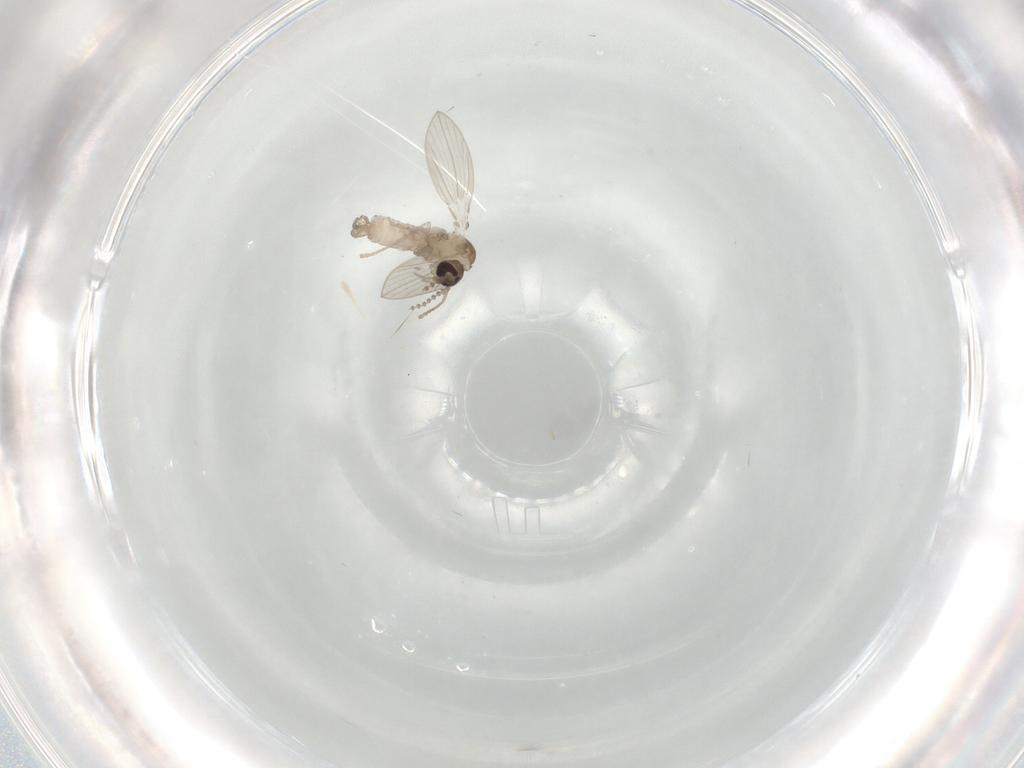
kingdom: Animalia
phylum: Arthropoda
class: Insecta
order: Diptera
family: Psychodidae
